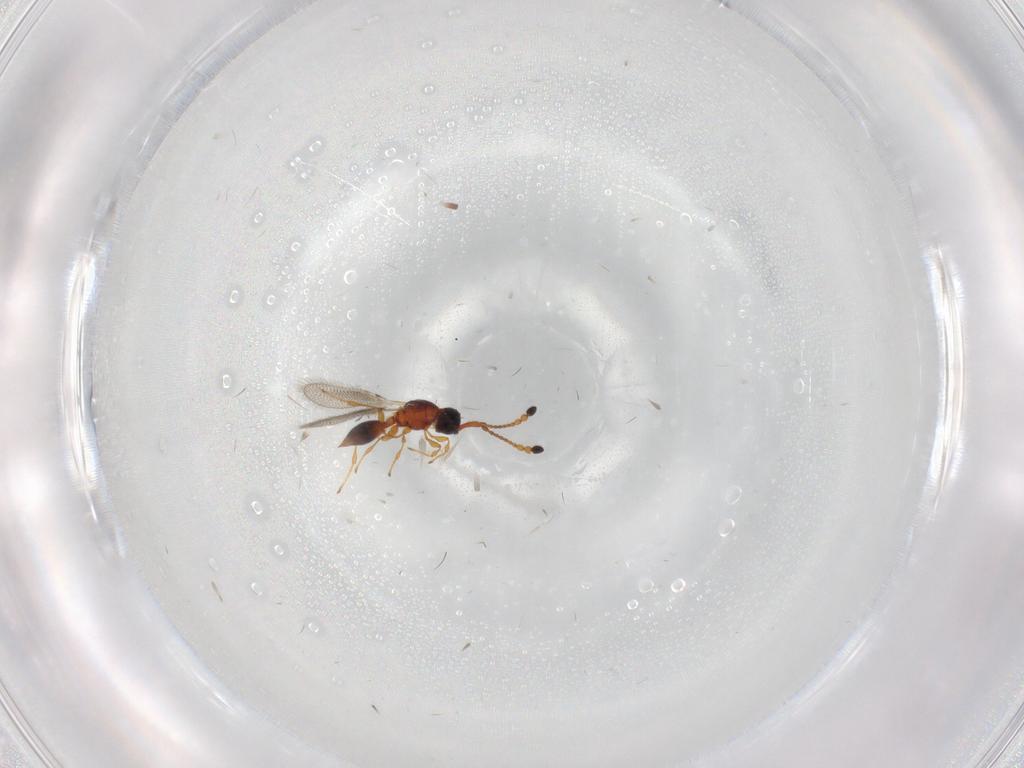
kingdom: Animalia
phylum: Arthropoda
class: Insecta
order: Hymenoptera
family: Diapriidae
